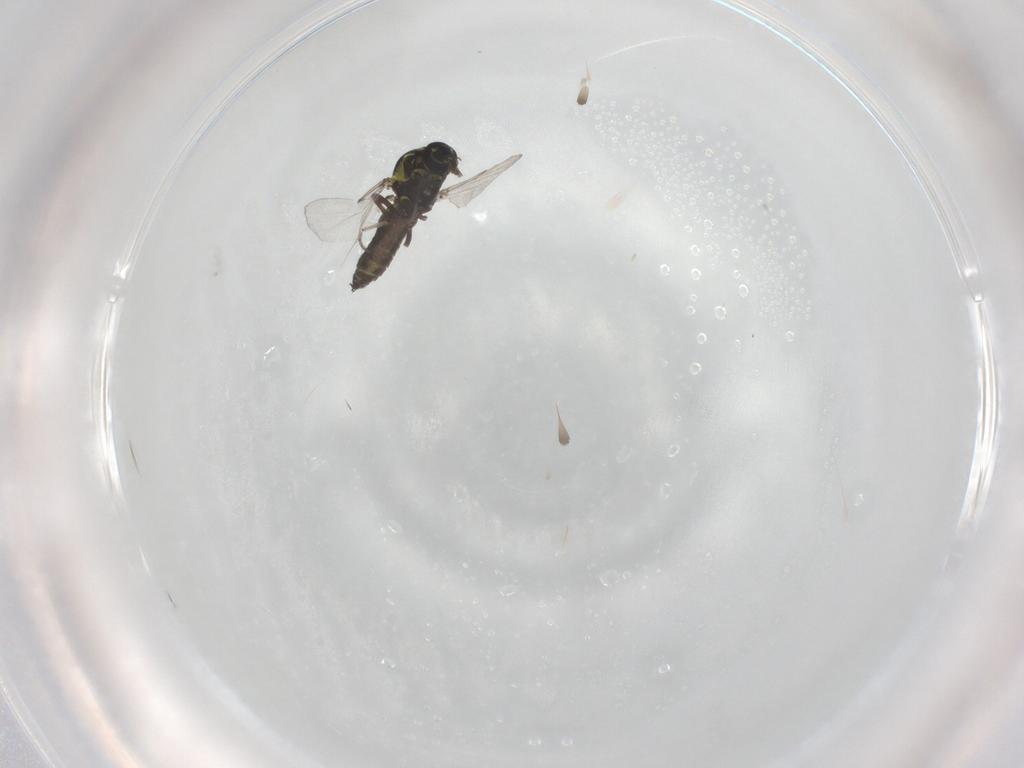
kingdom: Animalia
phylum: Arthropoda
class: Insecta
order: Diptera
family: Ceratopogonidae
